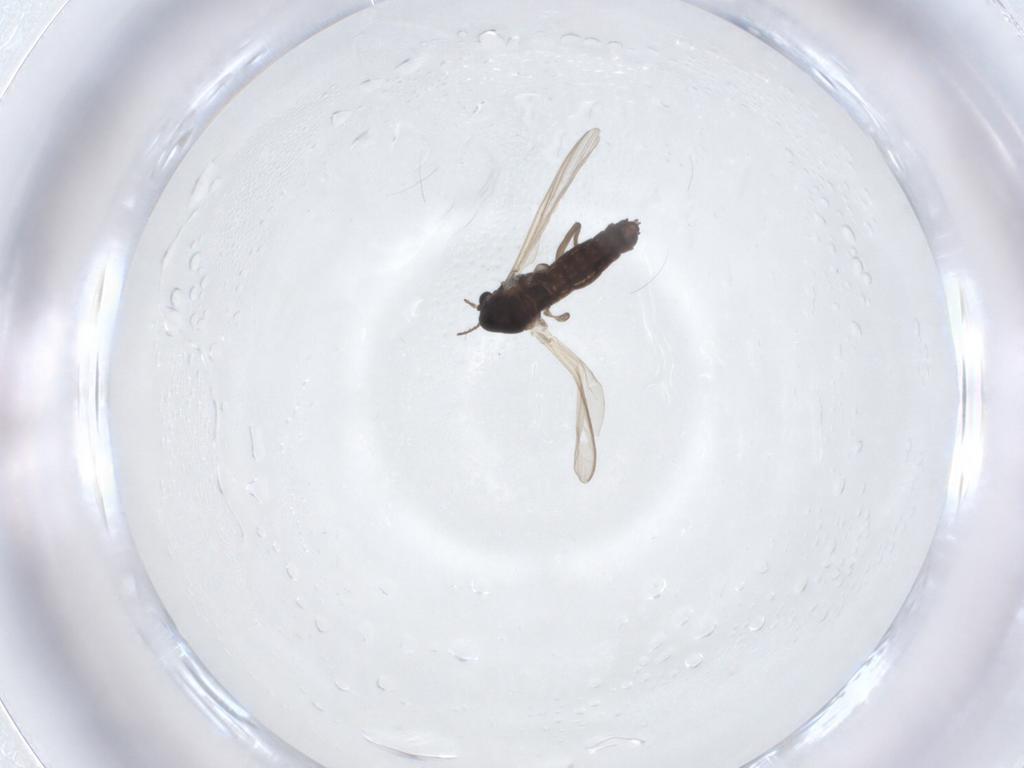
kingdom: Animalia
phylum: Arthropoda
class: Insecta
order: Diptera
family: Chironomidae
